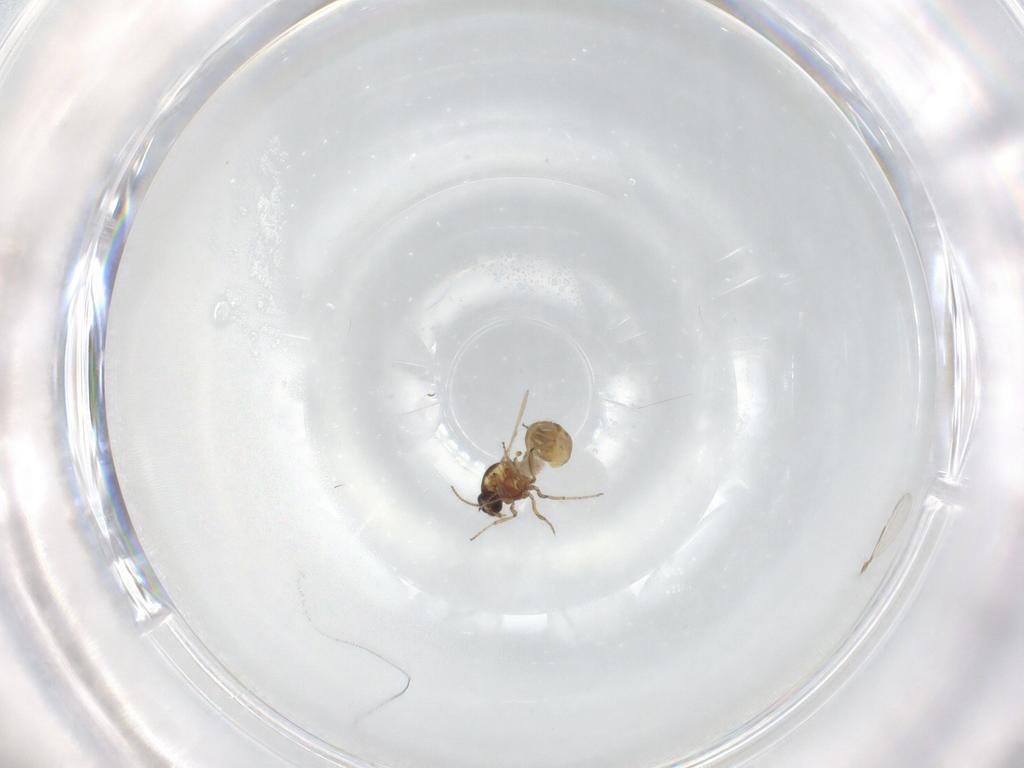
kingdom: Animalia
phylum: Arthropoda
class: Insecta
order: Diptera
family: Ceratopogonidae
